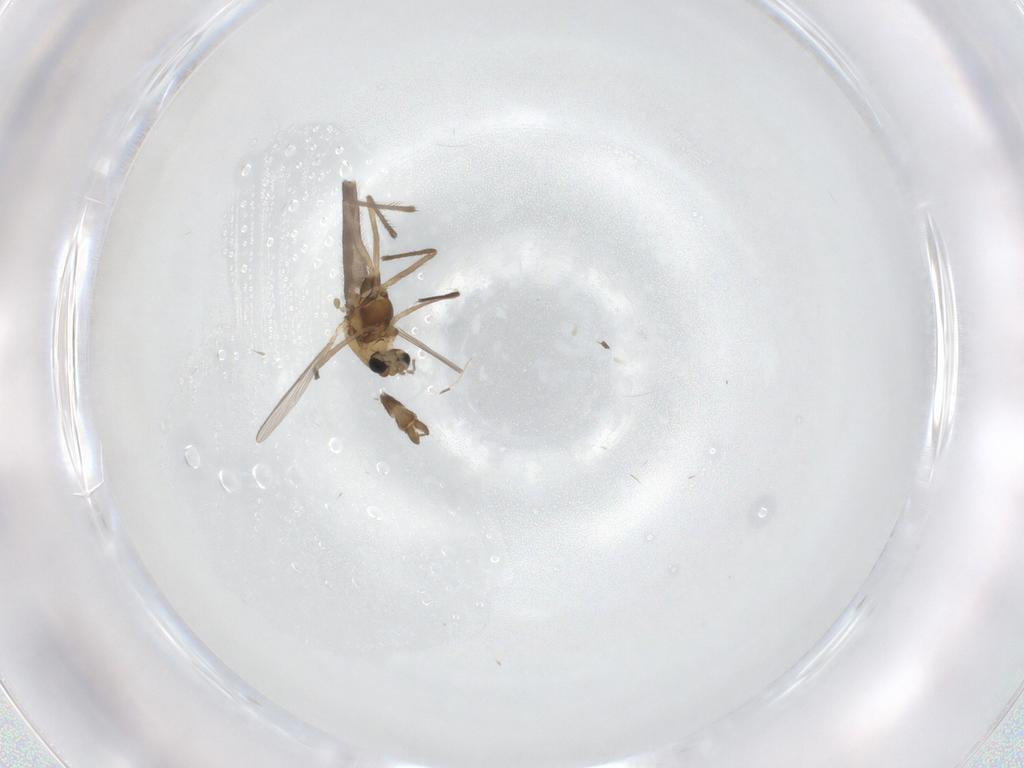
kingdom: Animalia
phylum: Arthropoda
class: Insecta
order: Diptera
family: Chironomidae
